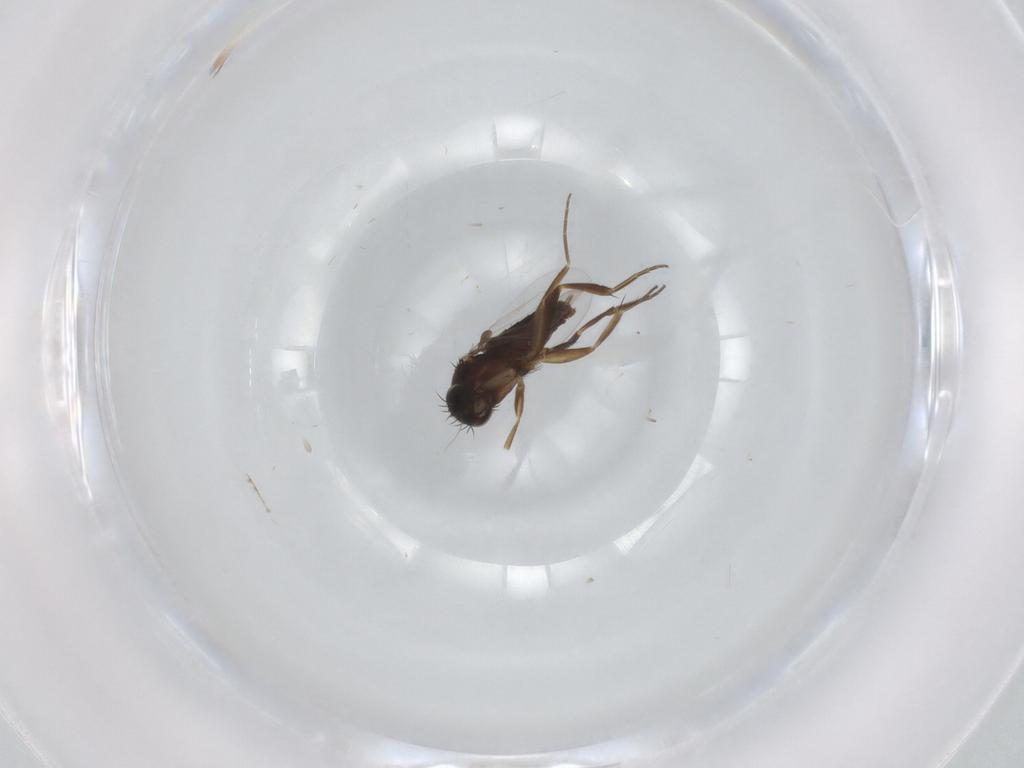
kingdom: Animalia
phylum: Arthropoda
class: Insecta
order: Diptera
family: Phoridae
